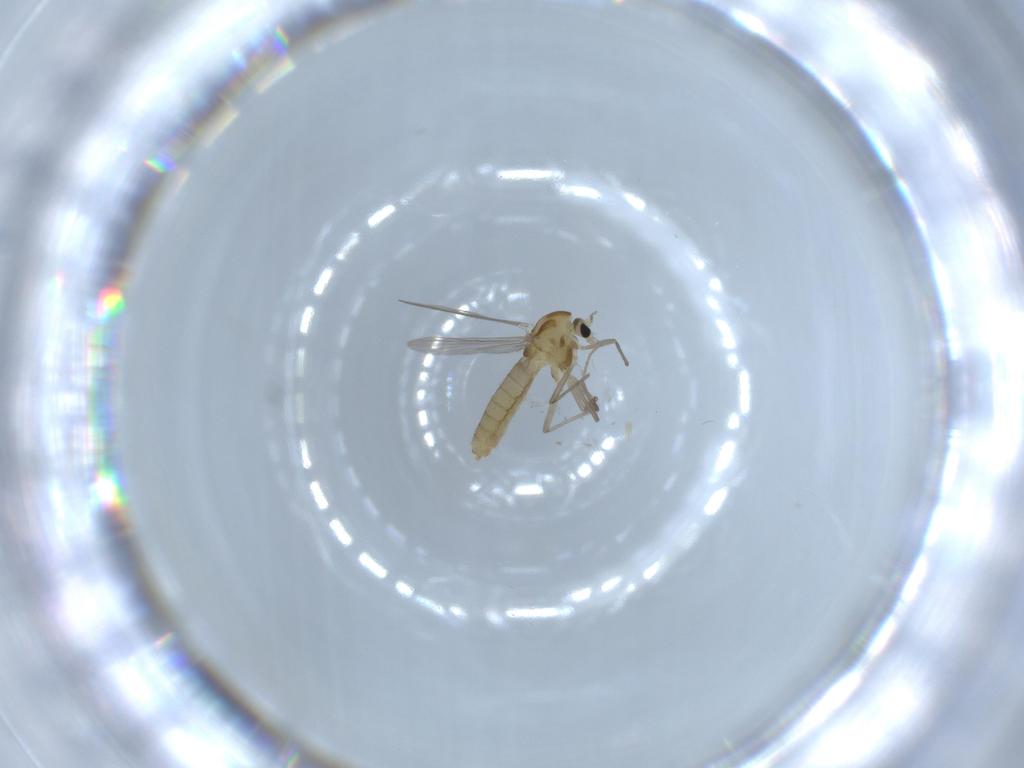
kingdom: Animalia
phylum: Arthropoda
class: Insecta
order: Diptera
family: Chironomidae
